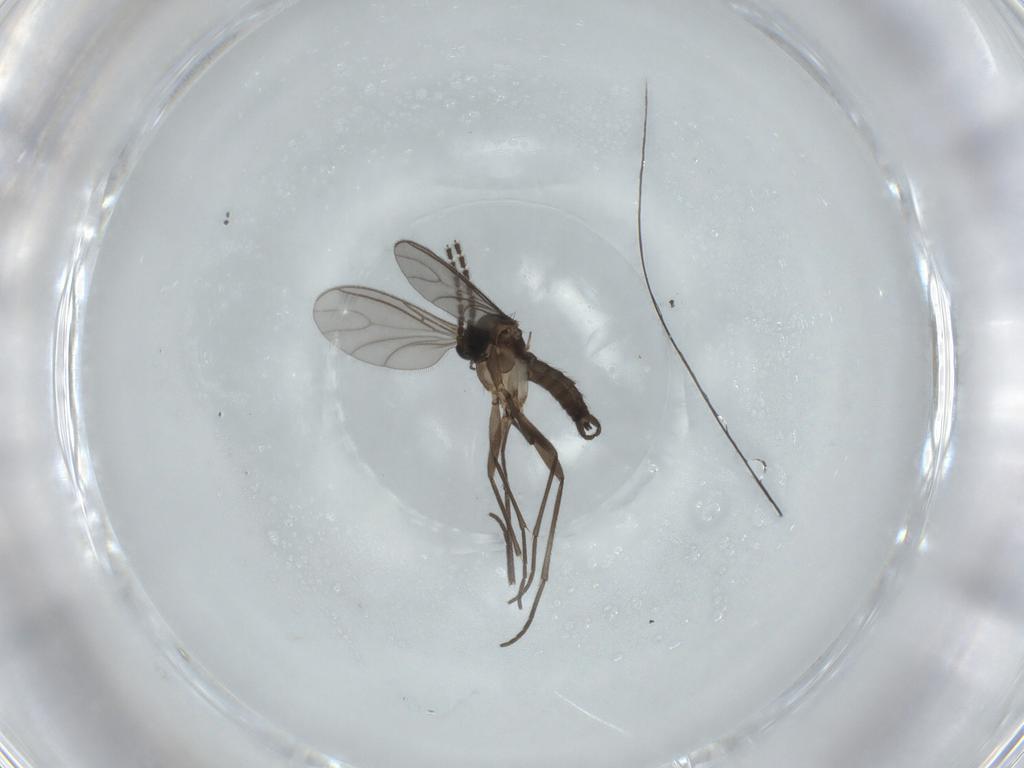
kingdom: Animalia
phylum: Arthropoda
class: Insecta
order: Diptera
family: Sciaridae
